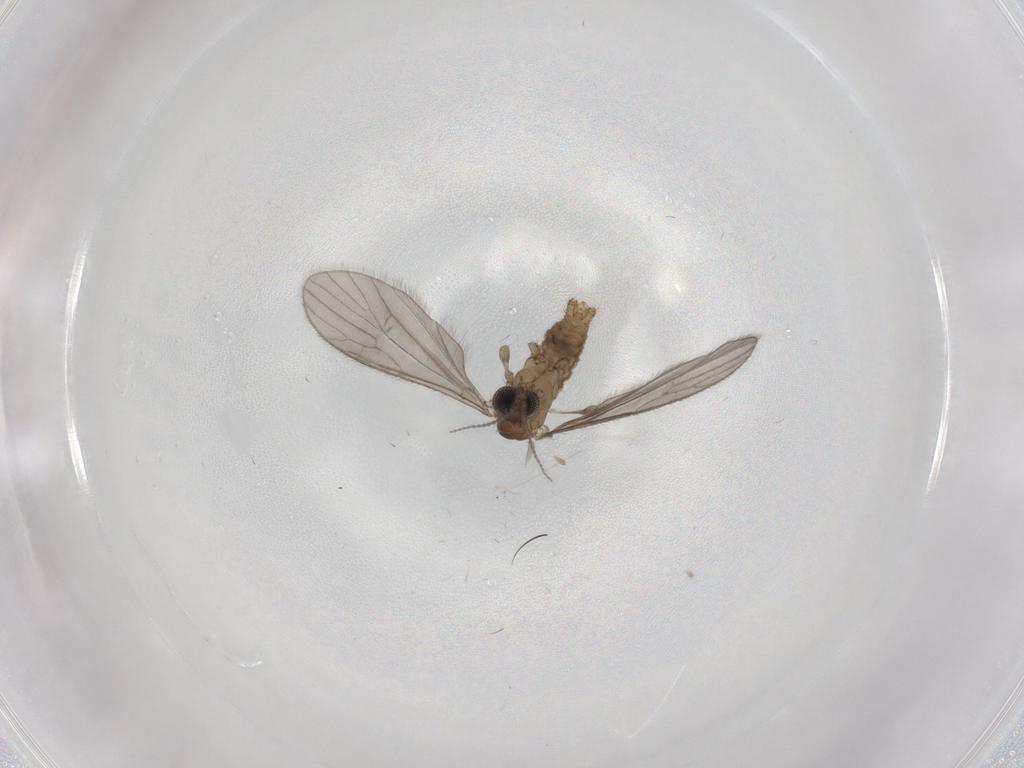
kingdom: Animalia
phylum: Arthropoda
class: Insecta
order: Diptera
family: Limoniidae
